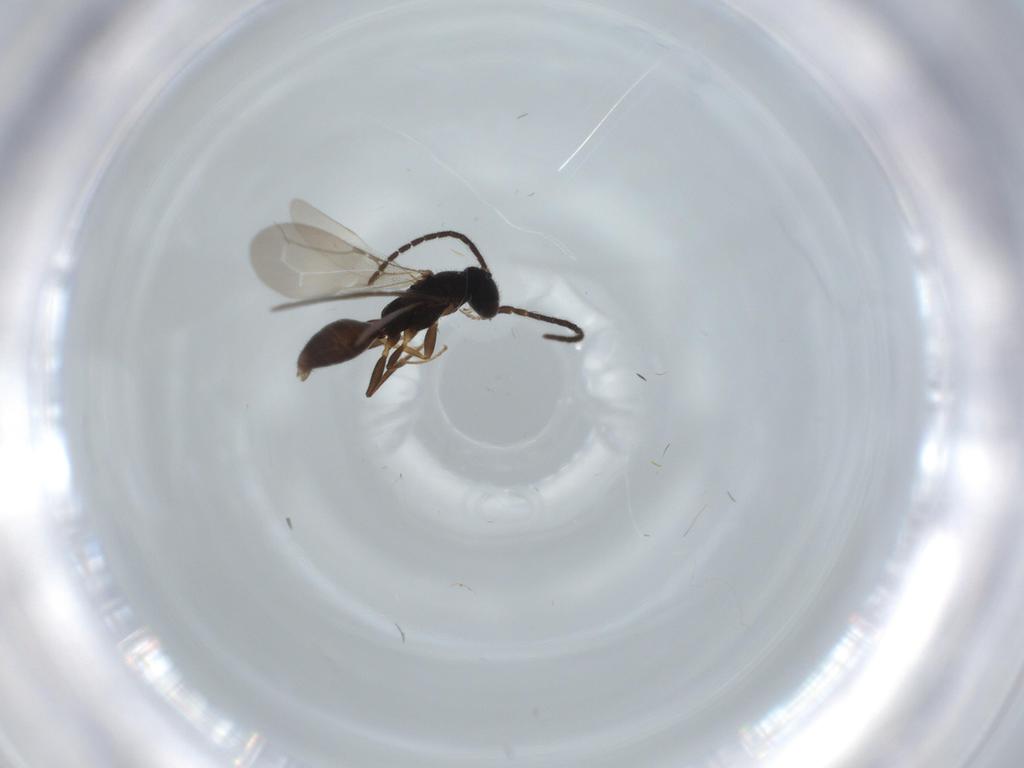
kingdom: Animalia
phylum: Arthropoda
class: Insecta
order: Hymenoptera
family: Bethylidae
